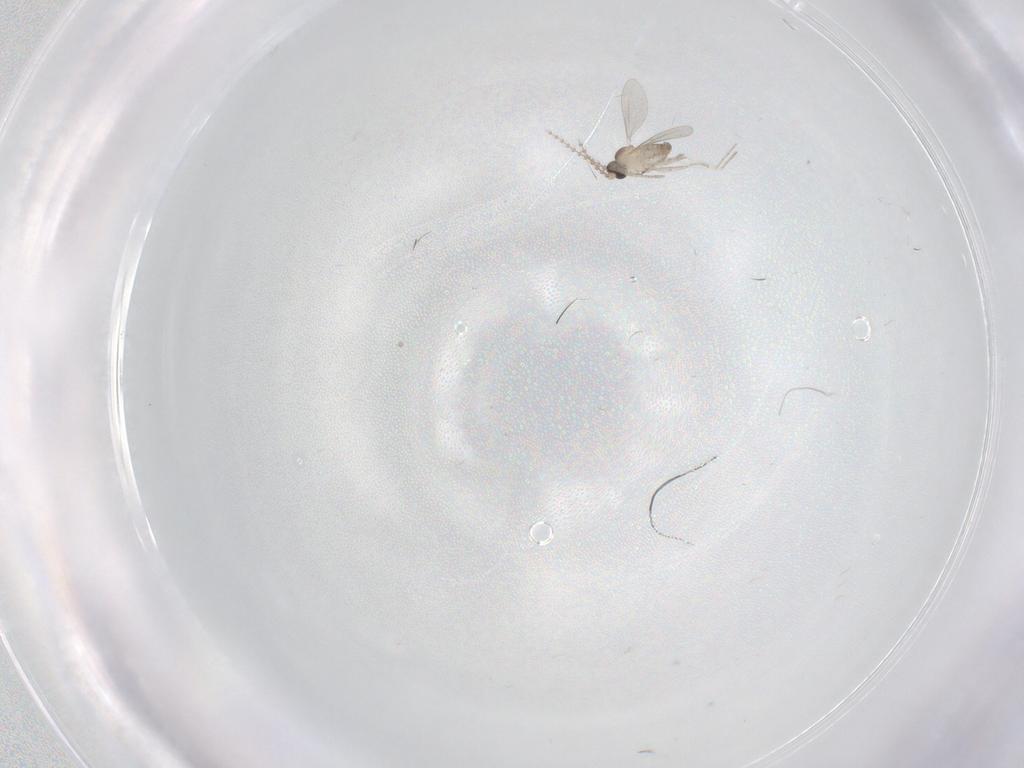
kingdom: Animalia
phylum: Arthropoda
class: Insecta
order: Diptera
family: Cecidomyiidae
